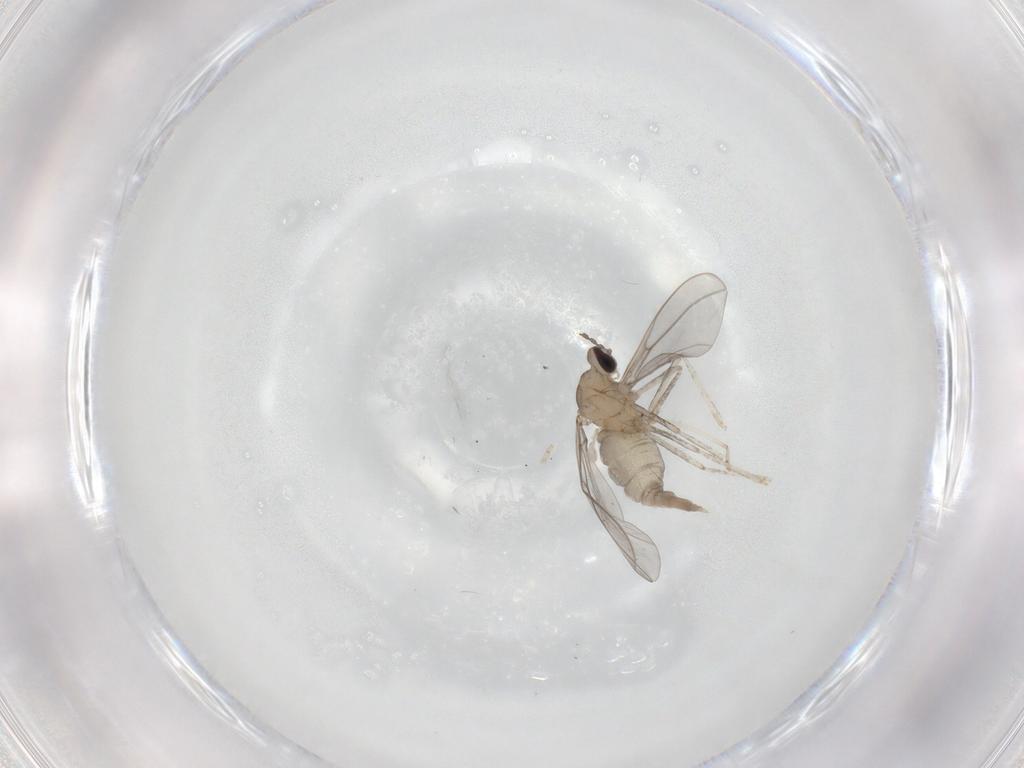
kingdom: Animalia
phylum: Arthropoda
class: Insecta
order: Diptera
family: Cecidomyiidae
